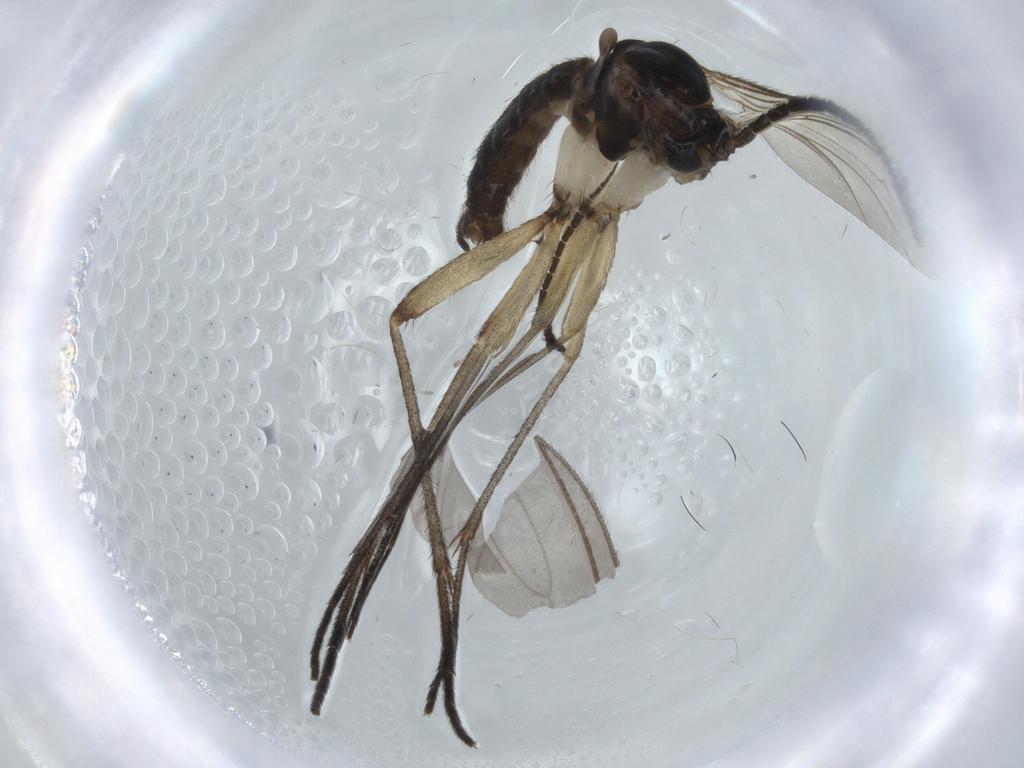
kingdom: Animalia
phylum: Arthropoda
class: Insecta
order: Diptera
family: Sciaridae
